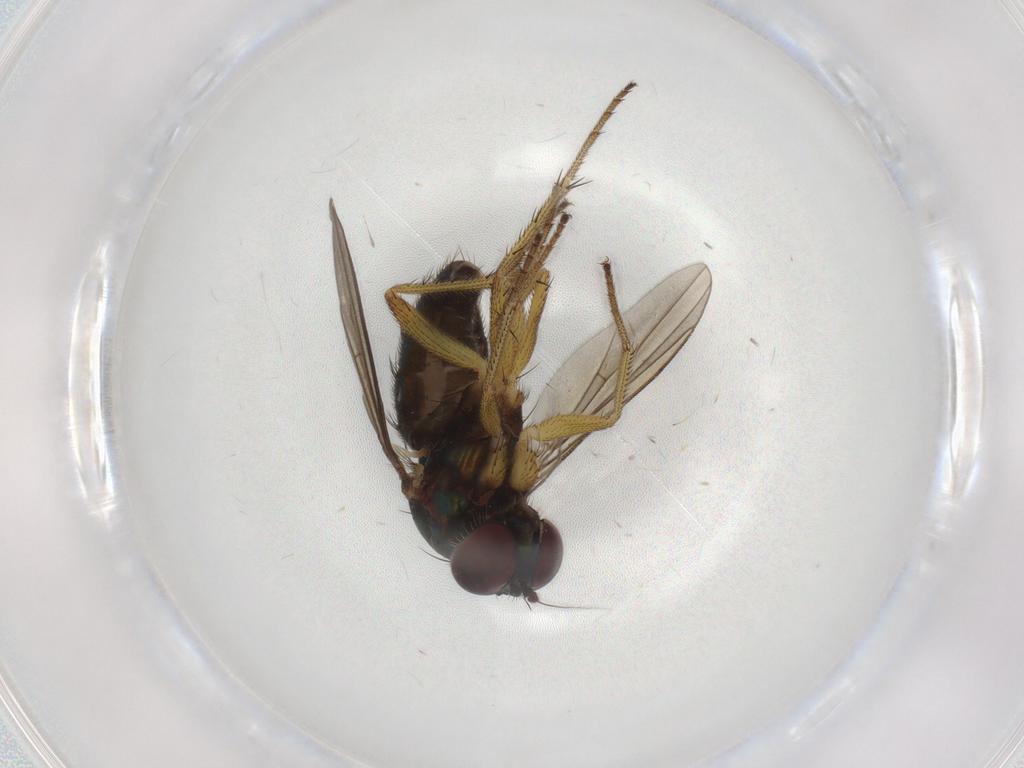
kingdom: Animalia
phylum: Arthropoda
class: Insecta
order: Diptera
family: Dolichopodidae
